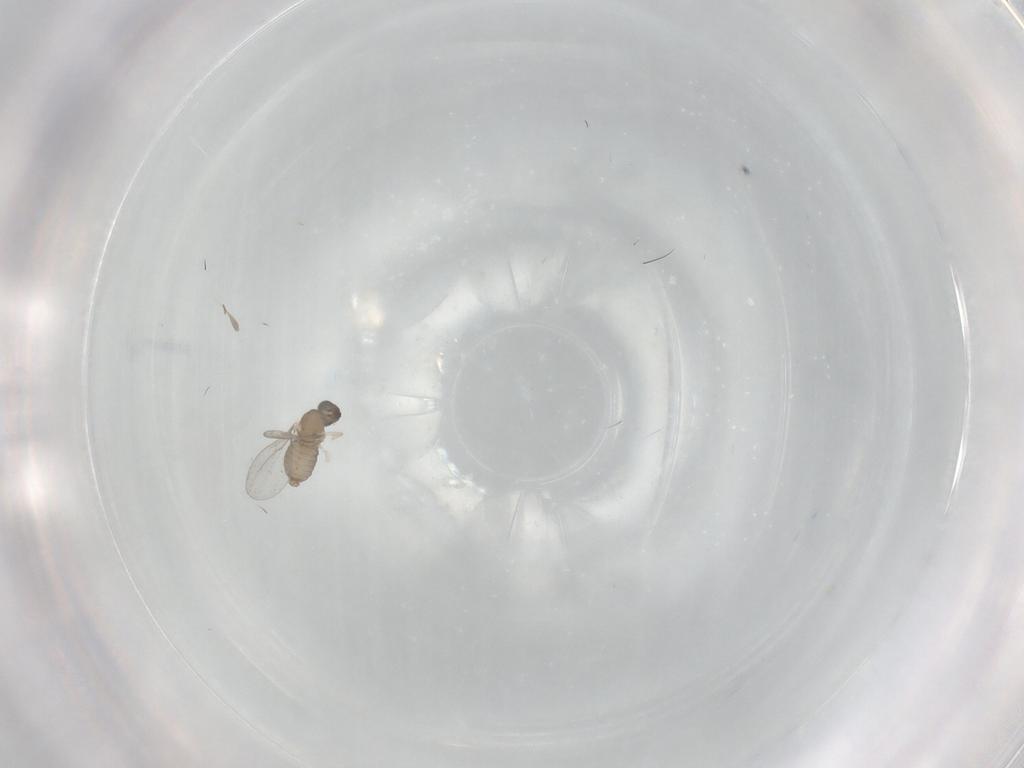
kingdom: Animalia
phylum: Arthropoda
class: Insecta
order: Diptera
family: Cecidomyiidae
